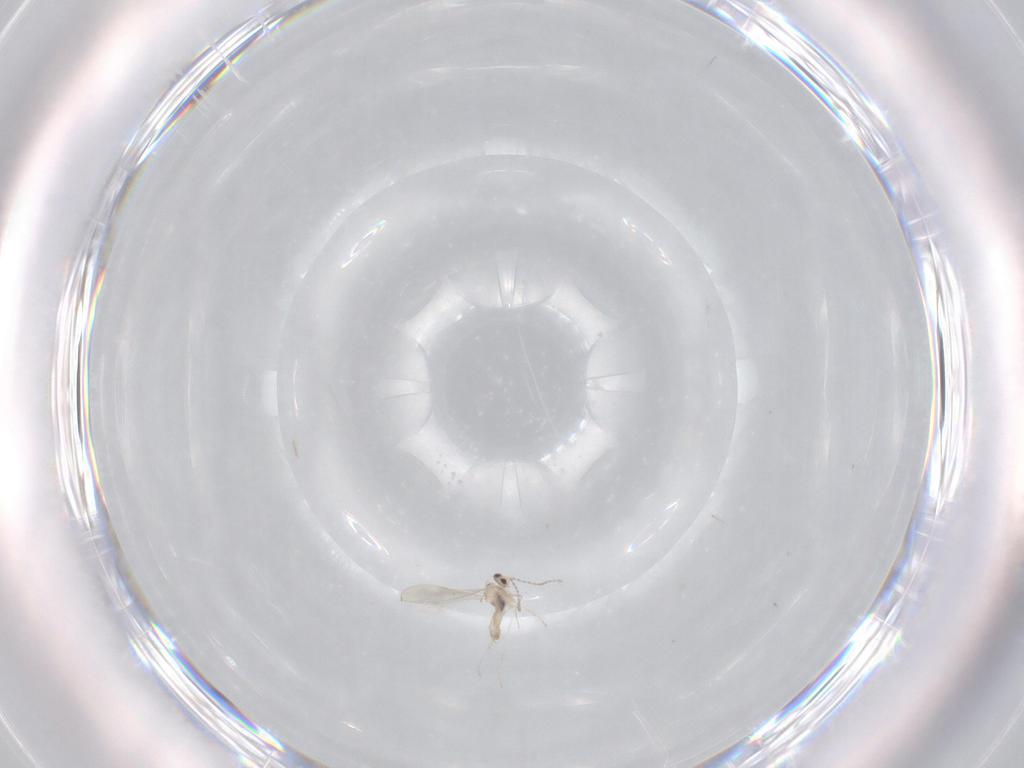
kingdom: Animalia
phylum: Arthropoda
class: Insecta
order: Diptera
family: Cecidomyiidae
